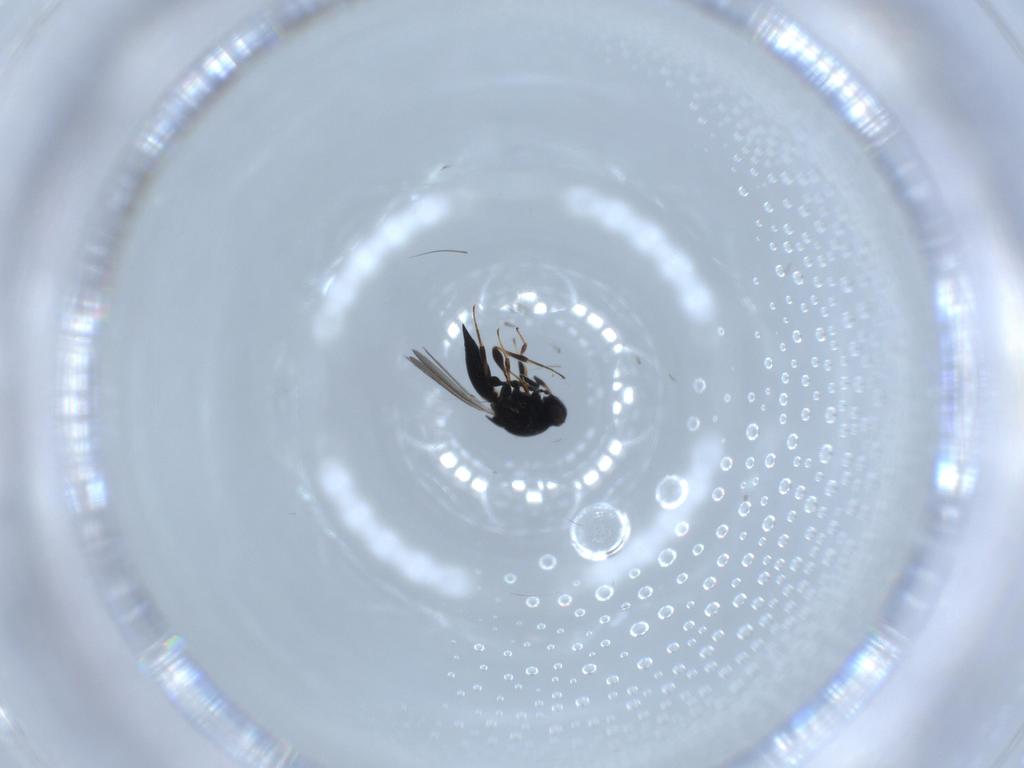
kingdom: Animalia
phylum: Arthropoda
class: Insecta
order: Hymenoptera
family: Platygastridae
